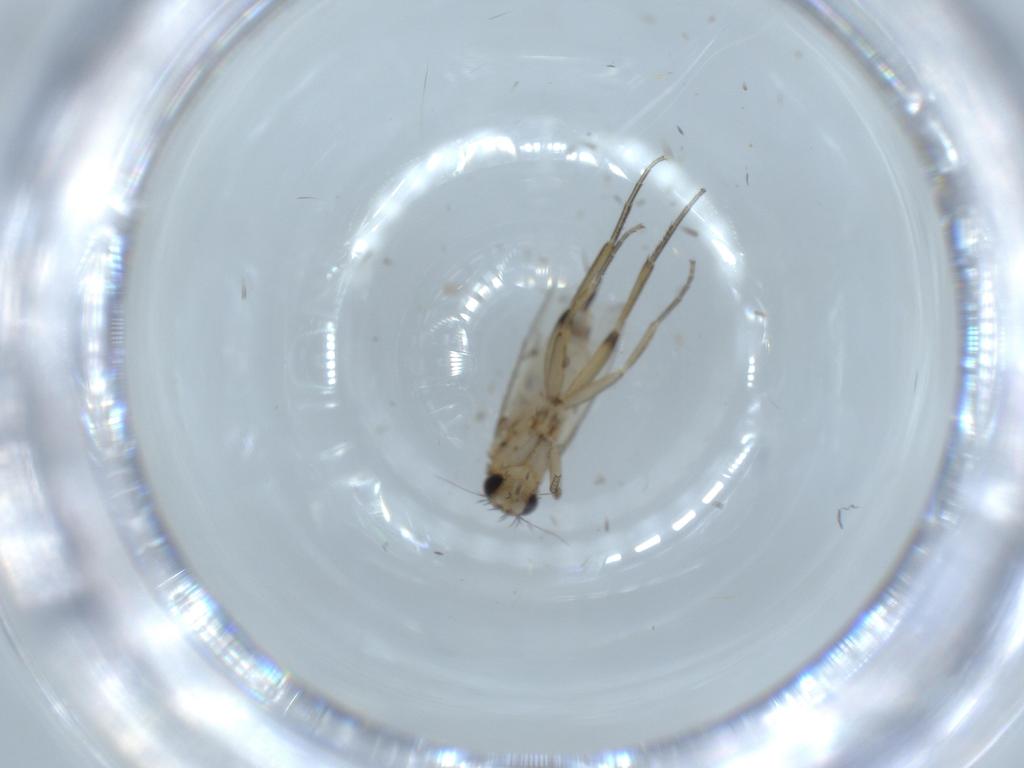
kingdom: Animalia
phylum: Arthropoda
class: Insecta
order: Diptera
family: Phoridae
